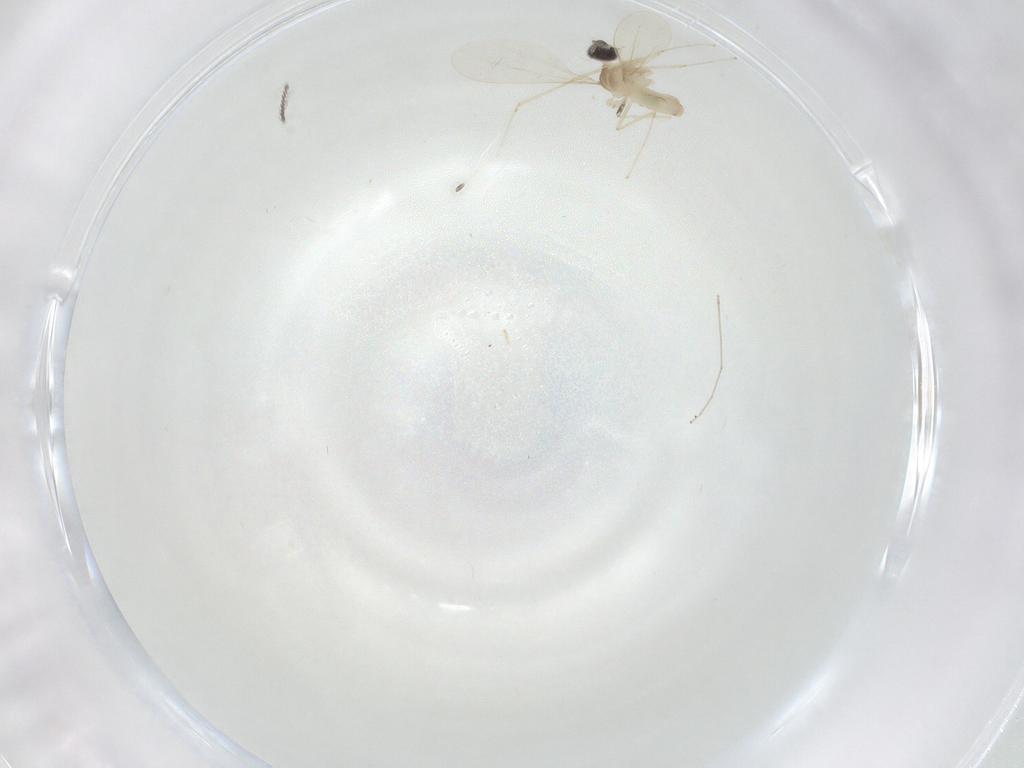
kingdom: Animalia
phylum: Arthropoda
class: Insecta
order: Diptera
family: Cecidomyiidae
